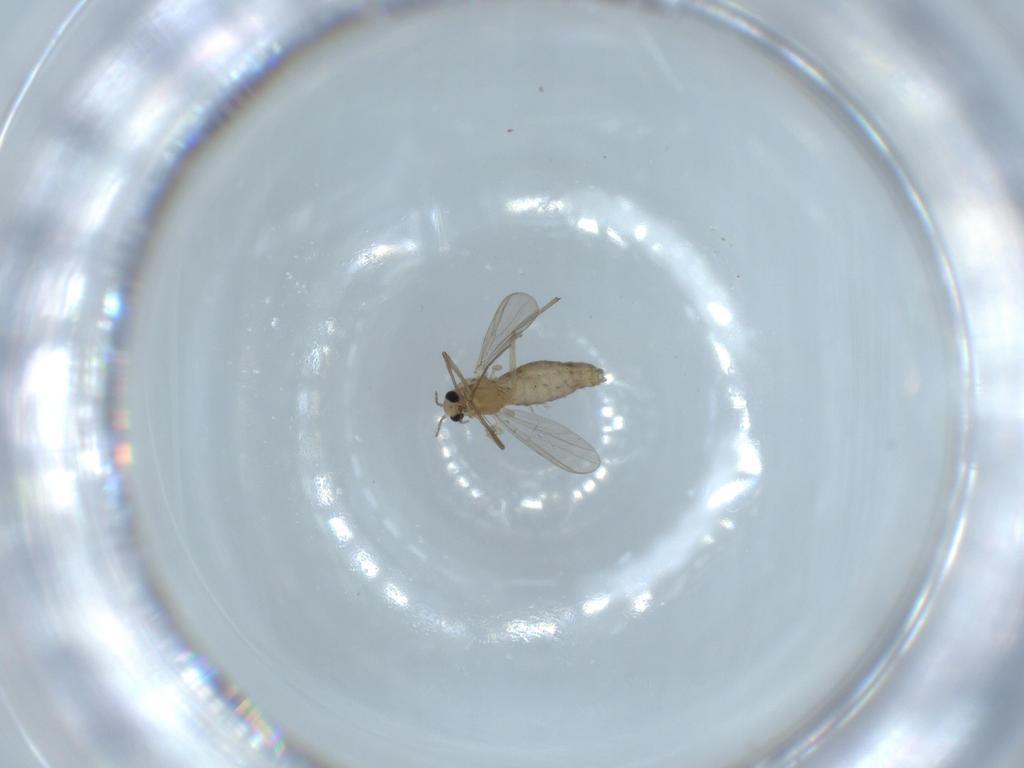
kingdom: Animalia
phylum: Arthropoda
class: Insecta
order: Diptera
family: Chironomidae
